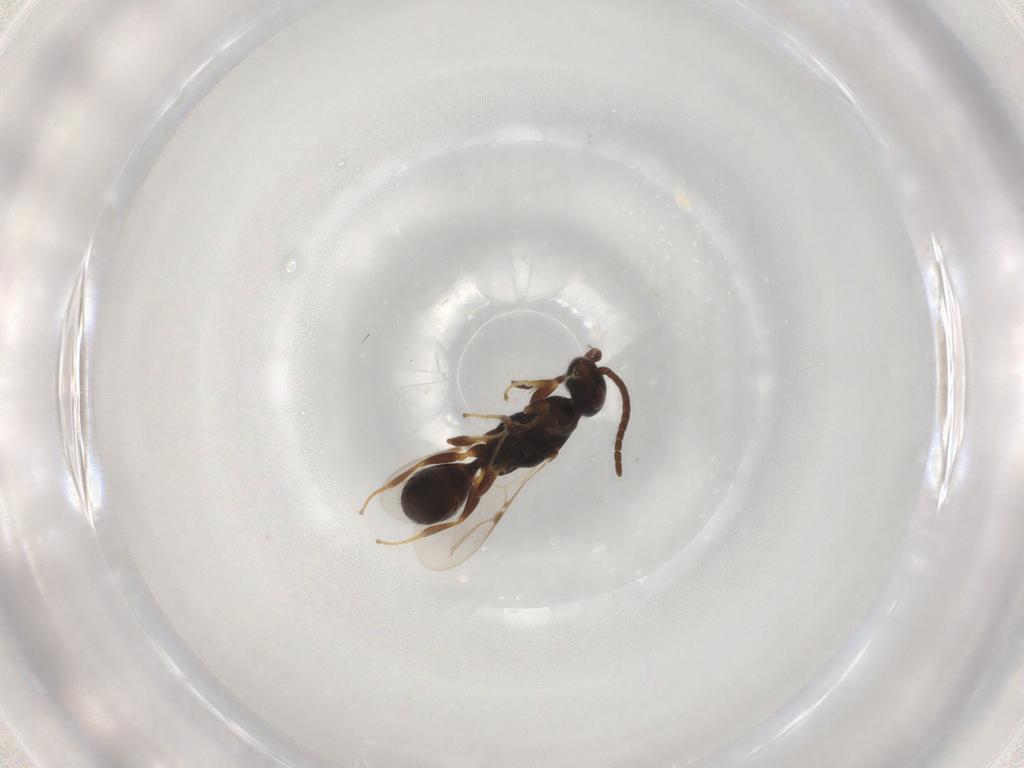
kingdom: Animalia
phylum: Arthropoda
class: Insecta
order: Hymenoptera
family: Bethylidae
